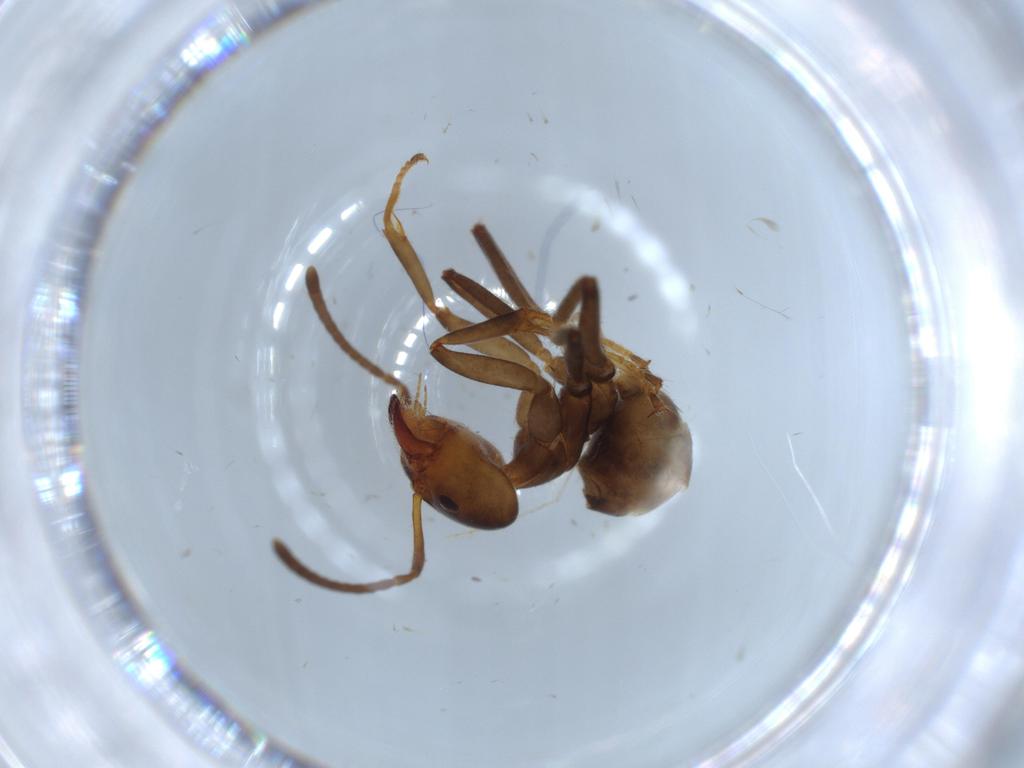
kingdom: Animalia
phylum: Arthropoda
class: Insecta
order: Hymenoptera
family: Formicidae
